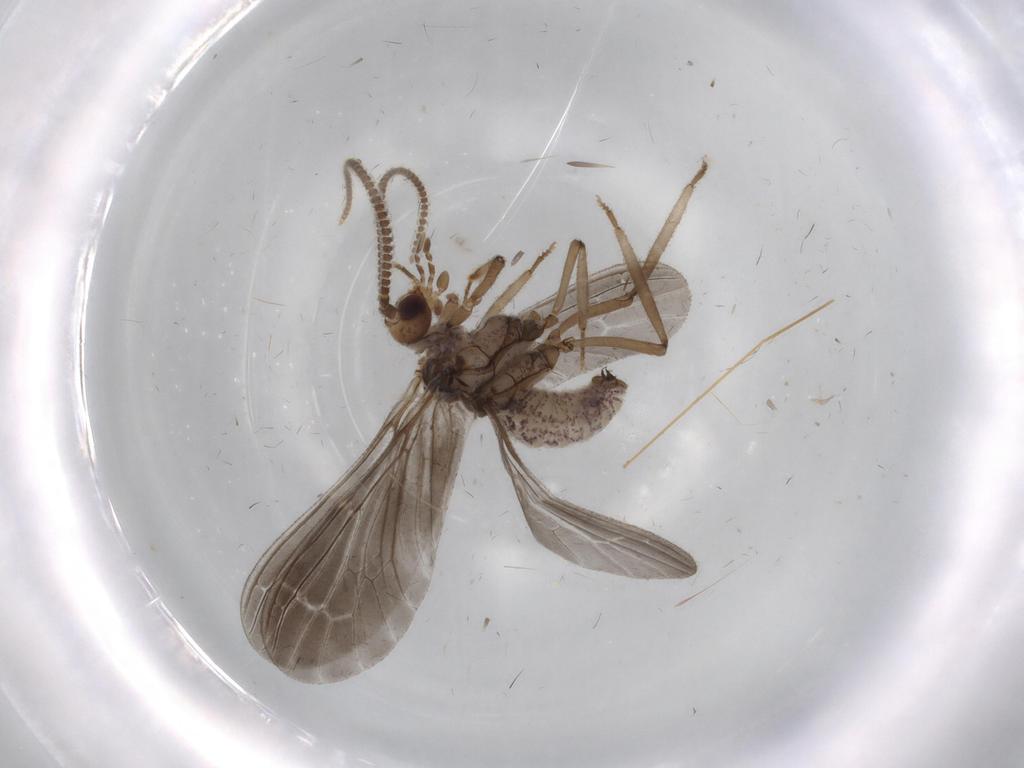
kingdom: Animalia
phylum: Arthropoda
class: Insecta
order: Neuroptera
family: Coniopterygidae
